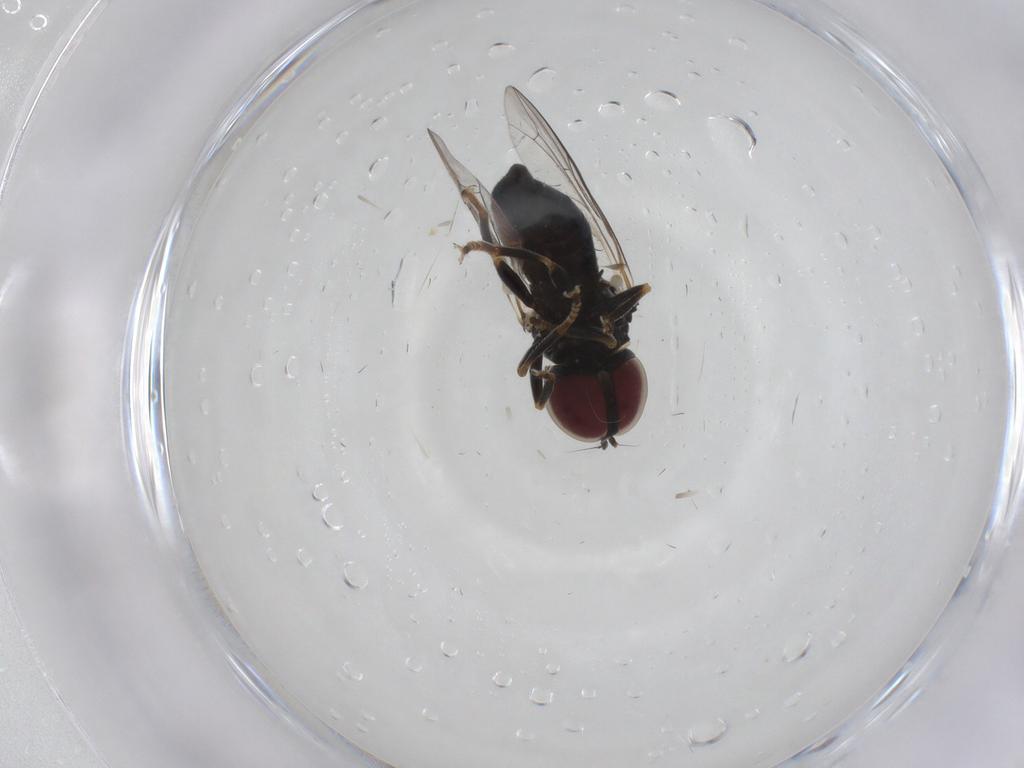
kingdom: Animalia
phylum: Arthropoda
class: Insecta
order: Diptera
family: Pipunculidae
